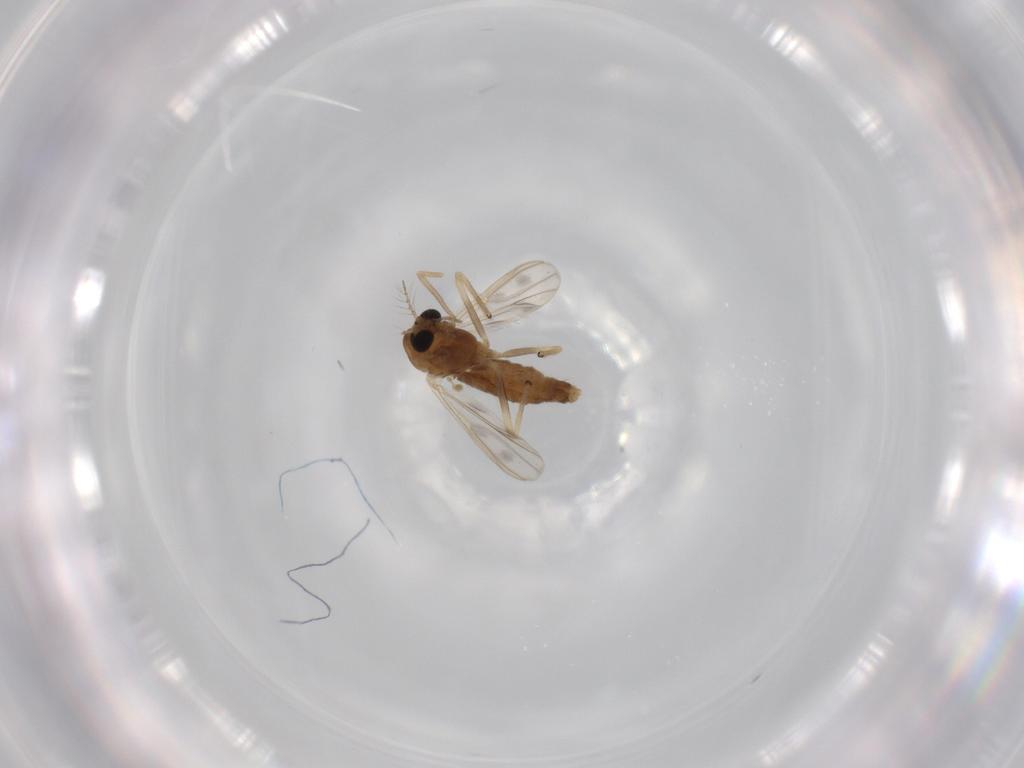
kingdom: Animalia
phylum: Arthropoda
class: Insecta
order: Diptera
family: Chironomidae
